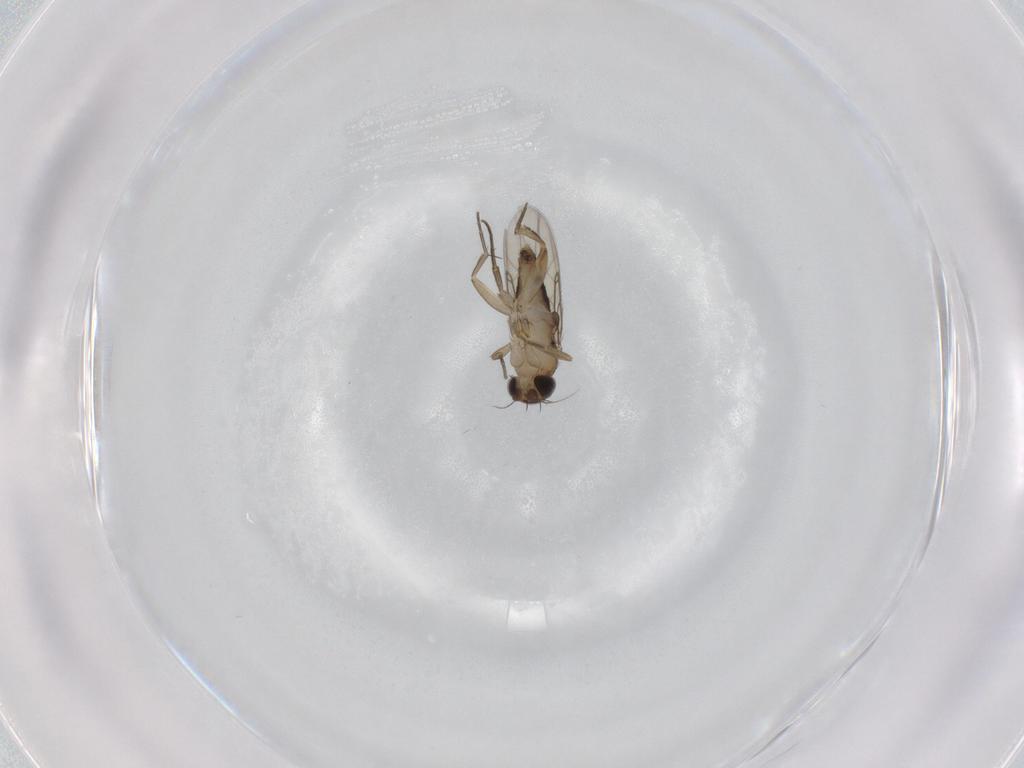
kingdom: Animalia
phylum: Arthropoda
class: Insecta
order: Diptera
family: Phoridae
